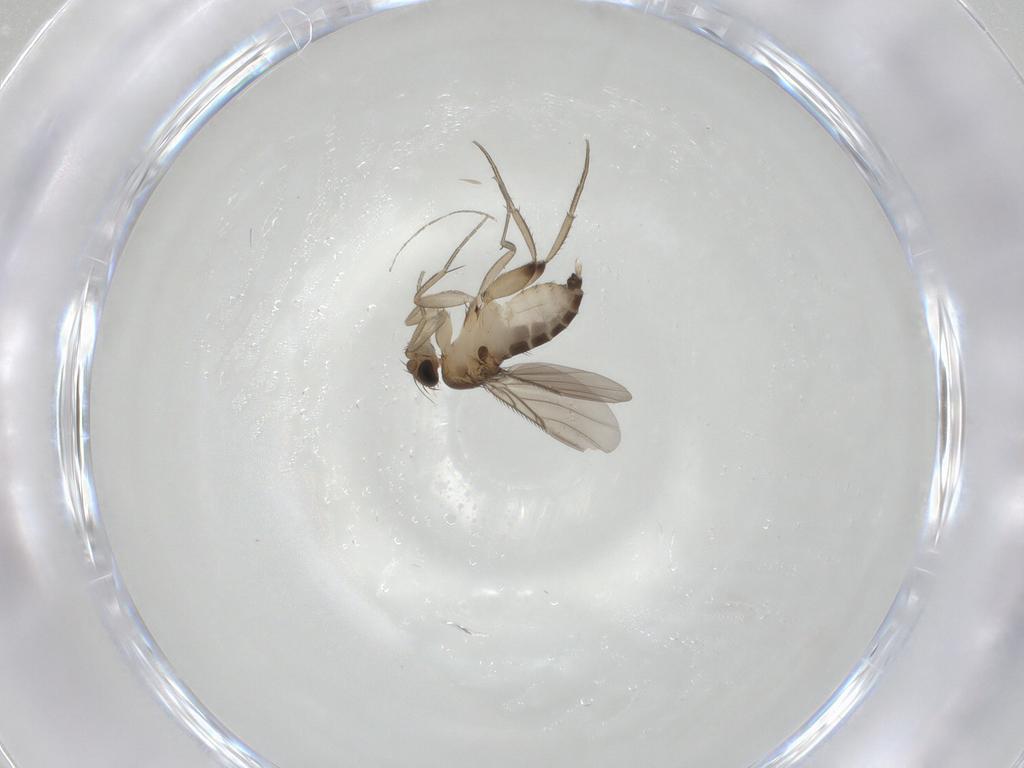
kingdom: Animalia
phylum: Arthropoda
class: Insecta
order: Diptera
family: Phoridae
